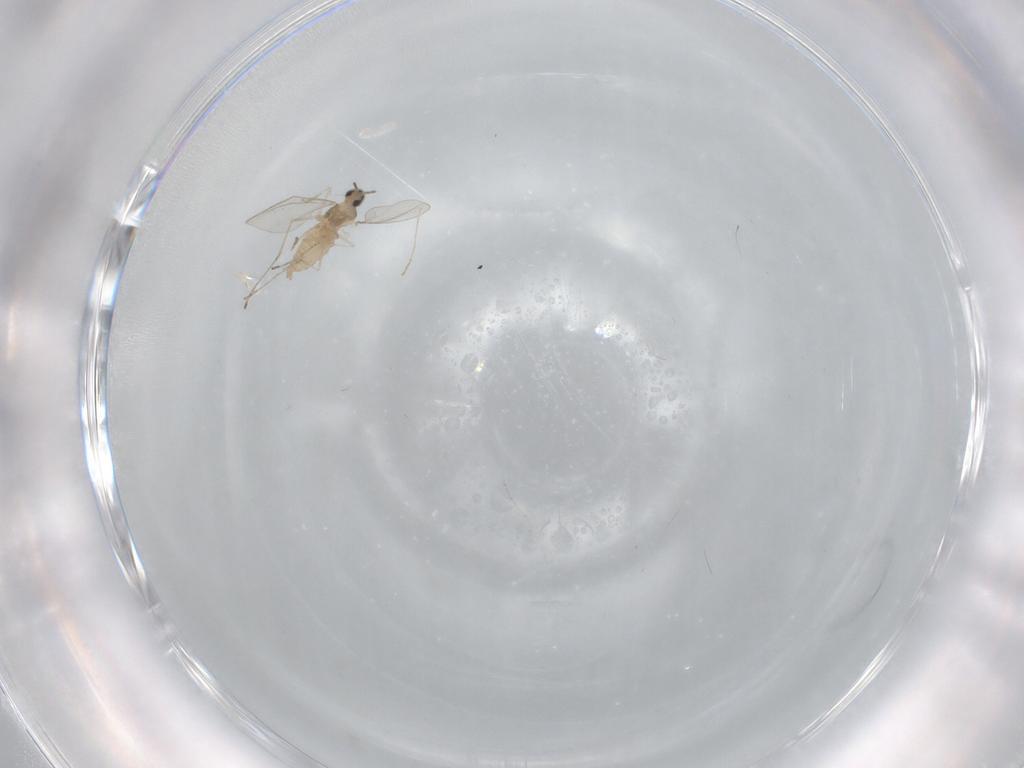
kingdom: Animalia
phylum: Arthropoda
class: Insecta
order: Diptera
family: Cecidomyiidae
